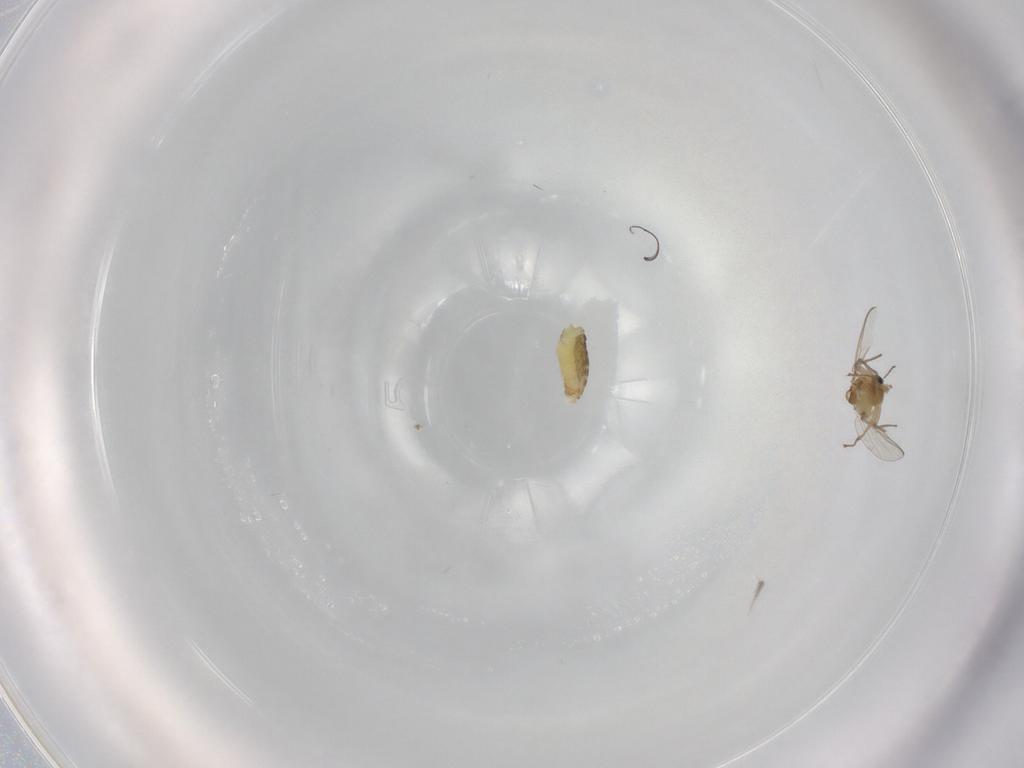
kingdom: Animalia
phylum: Arthropoda
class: Insecta
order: Diptera
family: Chironomidae
